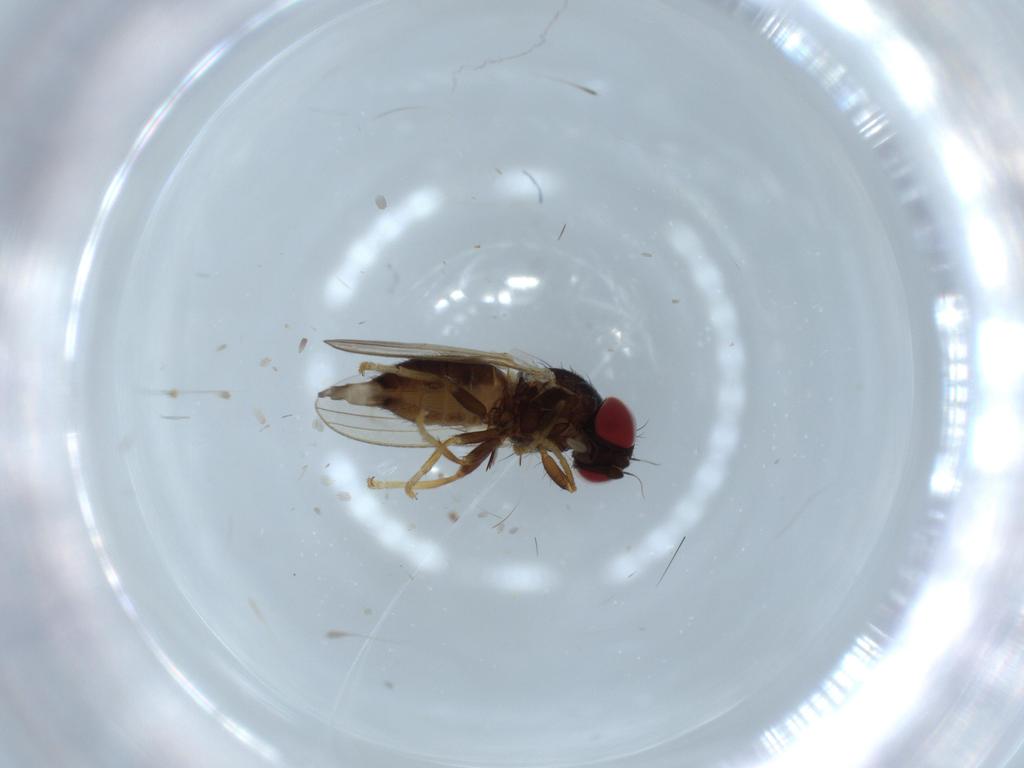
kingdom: Animalia
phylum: Arthropoda
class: Insecta
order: Diptera
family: Chamaemyiidae
